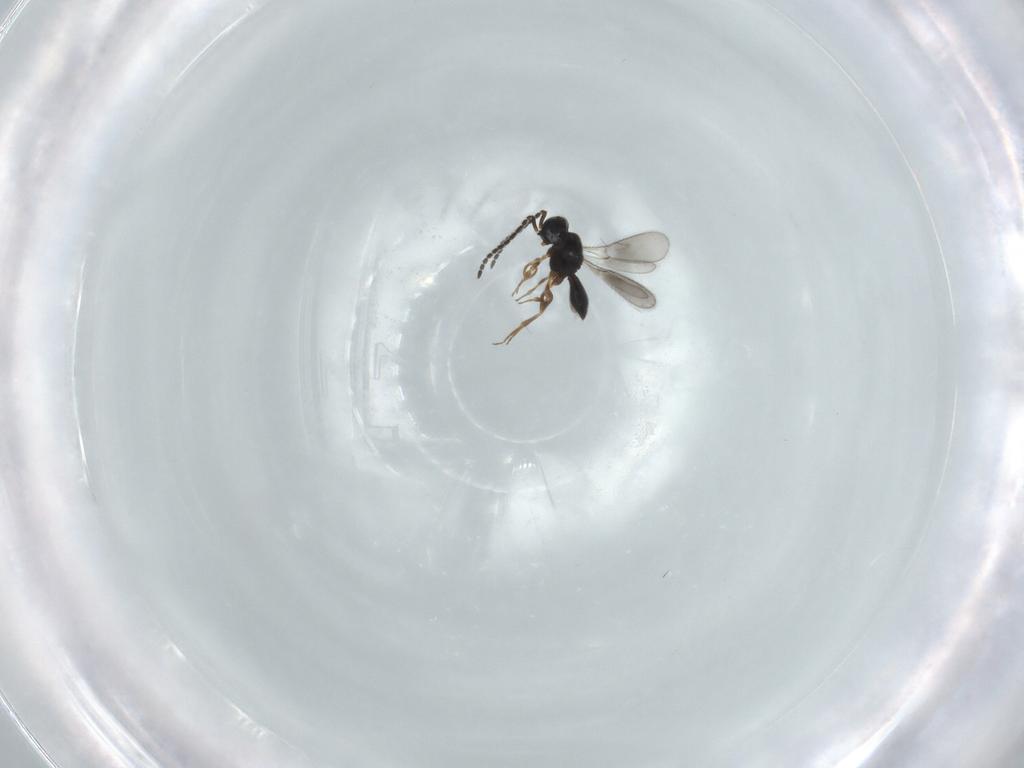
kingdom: Animalia
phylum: Arthropoda
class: Insecta
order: Hymenoptera
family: Scelionidae
